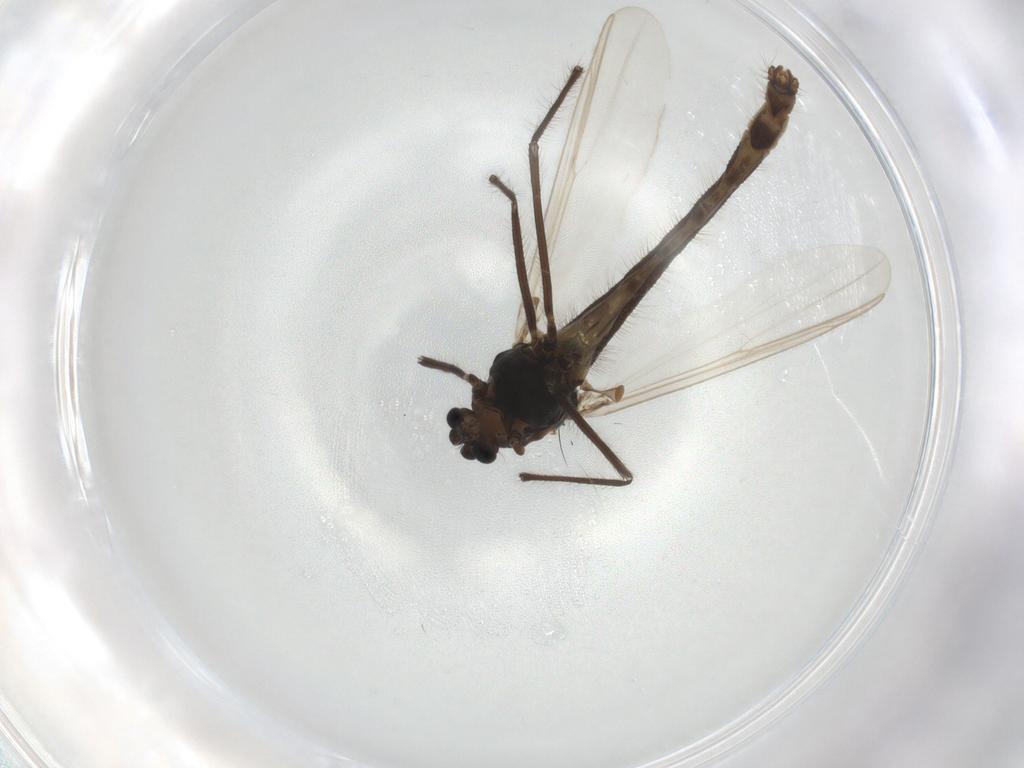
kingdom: Animalia
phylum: Arthropoda
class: Insecta
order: Diptera
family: Chironomidae
